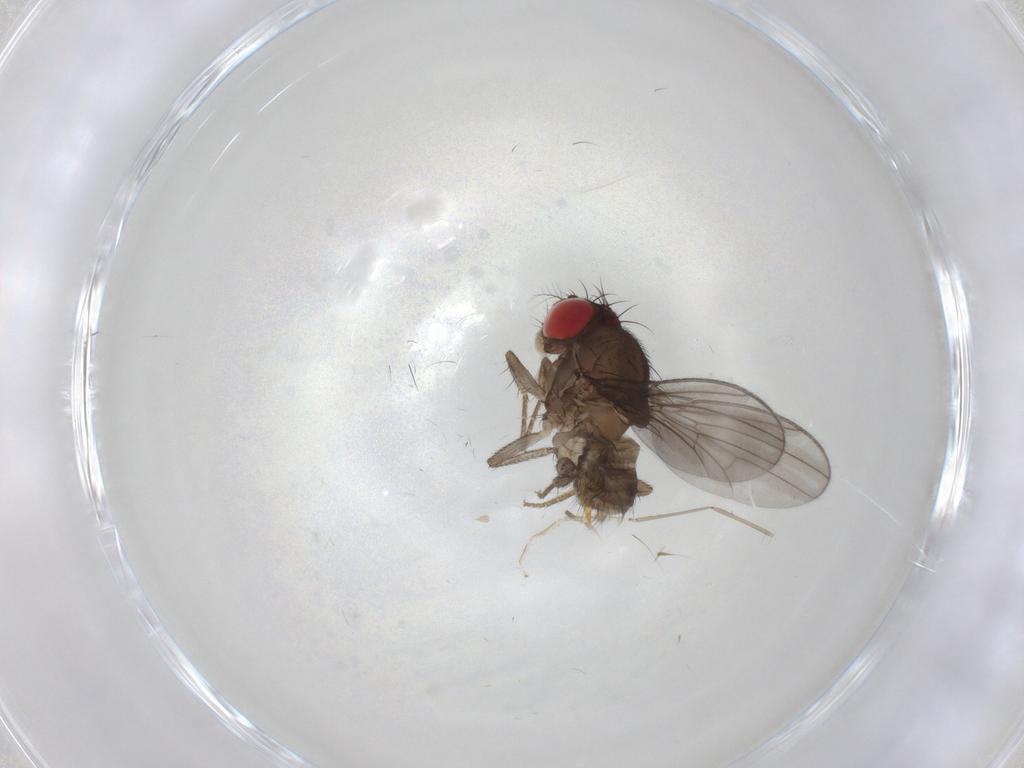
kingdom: Animalia
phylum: Arthropoda
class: Insecta
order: Diptera
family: Drosophilidae
